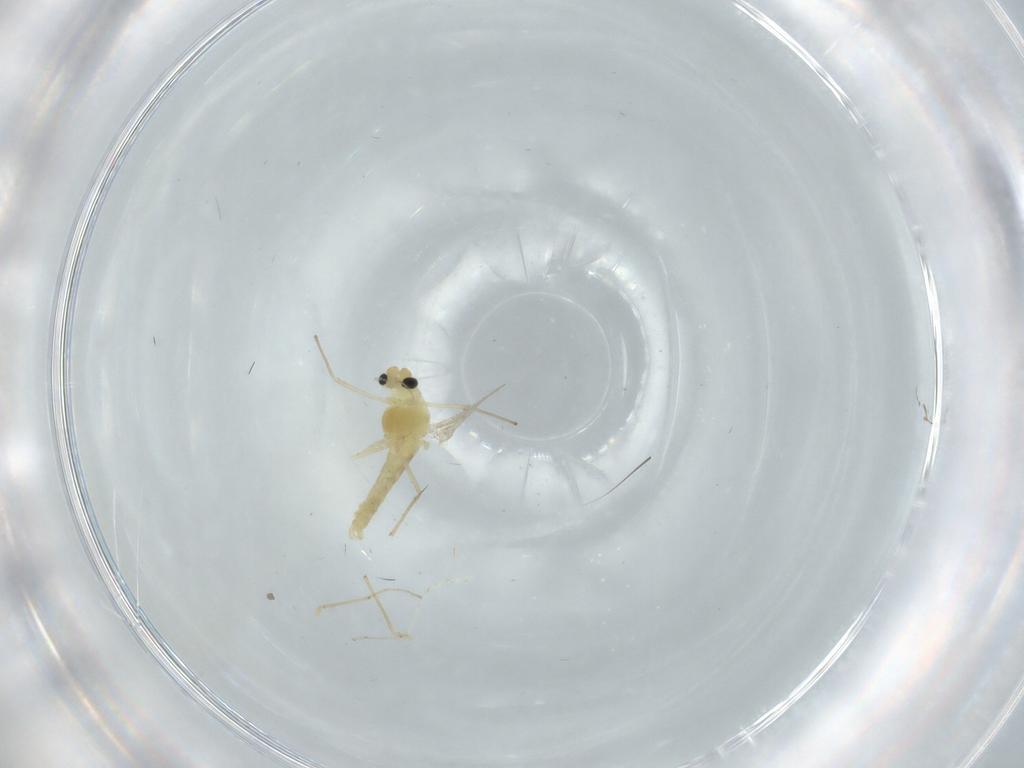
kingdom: Animalia
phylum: Arthropoda
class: Insecta
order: Diptera
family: Chironomidae
